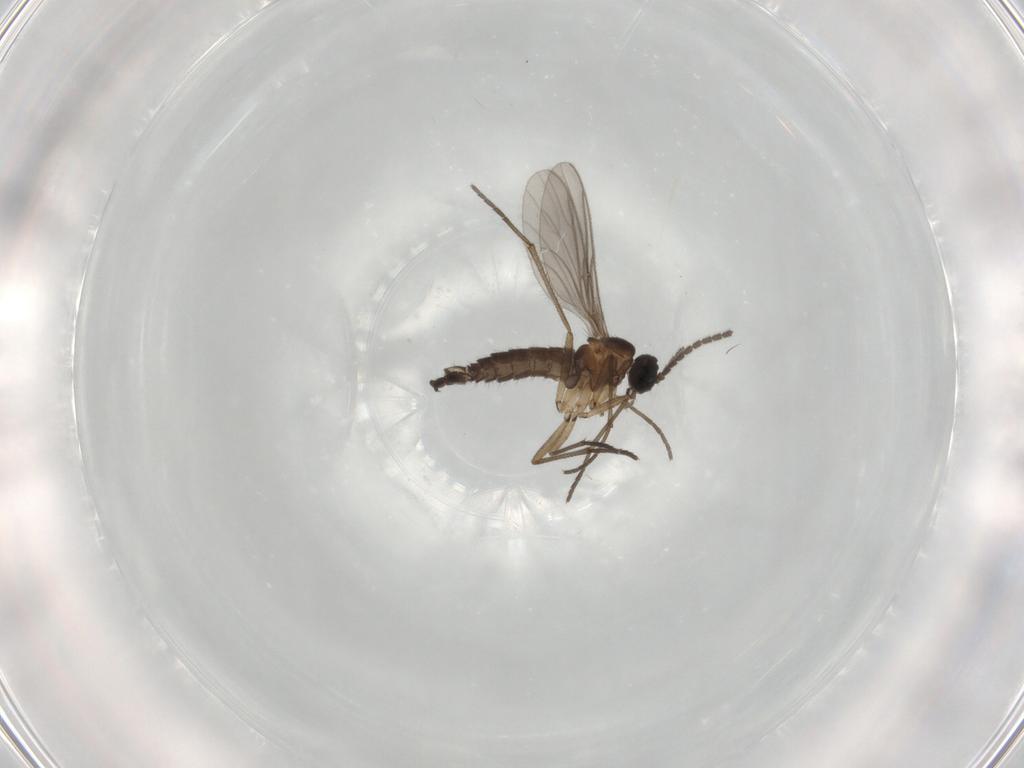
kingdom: Animalia
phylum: Arthropoda
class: Insecta
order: Diptera
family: Sciaridae
